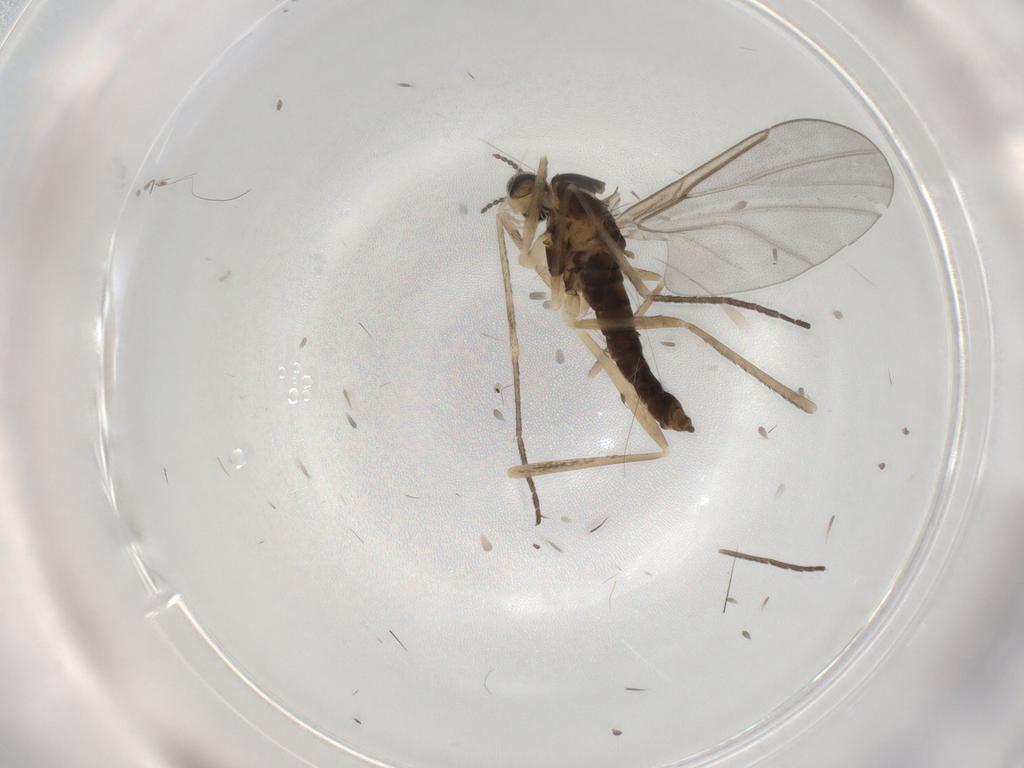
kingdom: Animalia
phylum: Arthropoda
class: Insecta
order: Diptera
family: Cecidomyiidae
